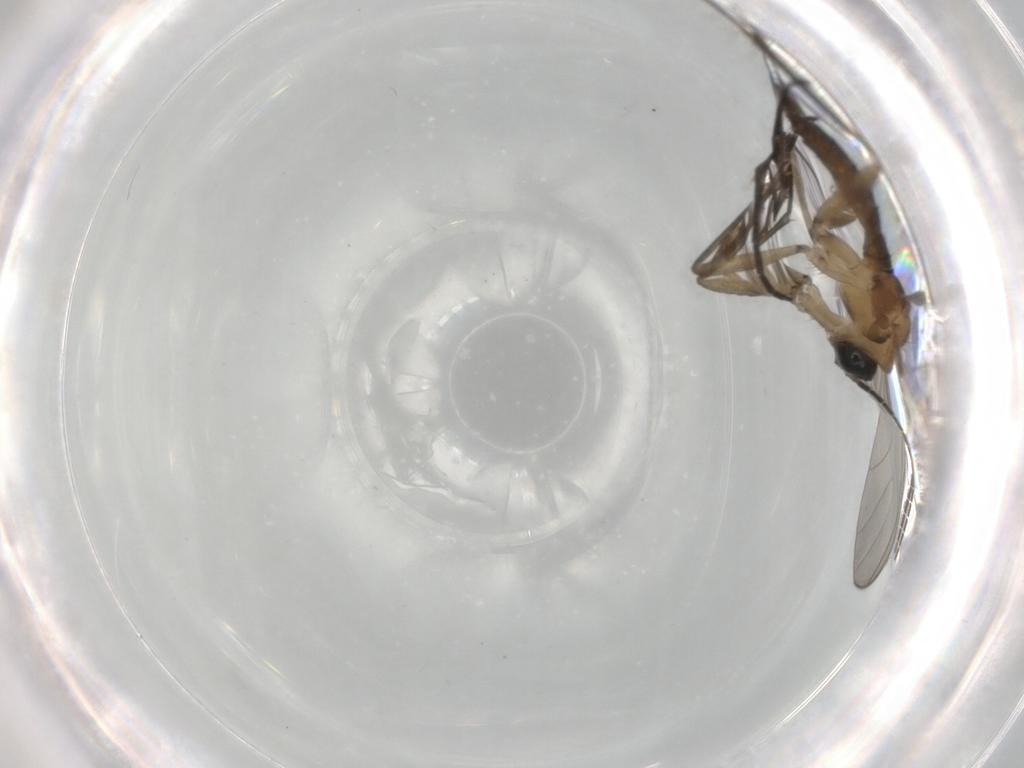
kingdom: Animalia
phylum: Arthropoda
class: Insecta
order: Diptera
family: Sciaridae
